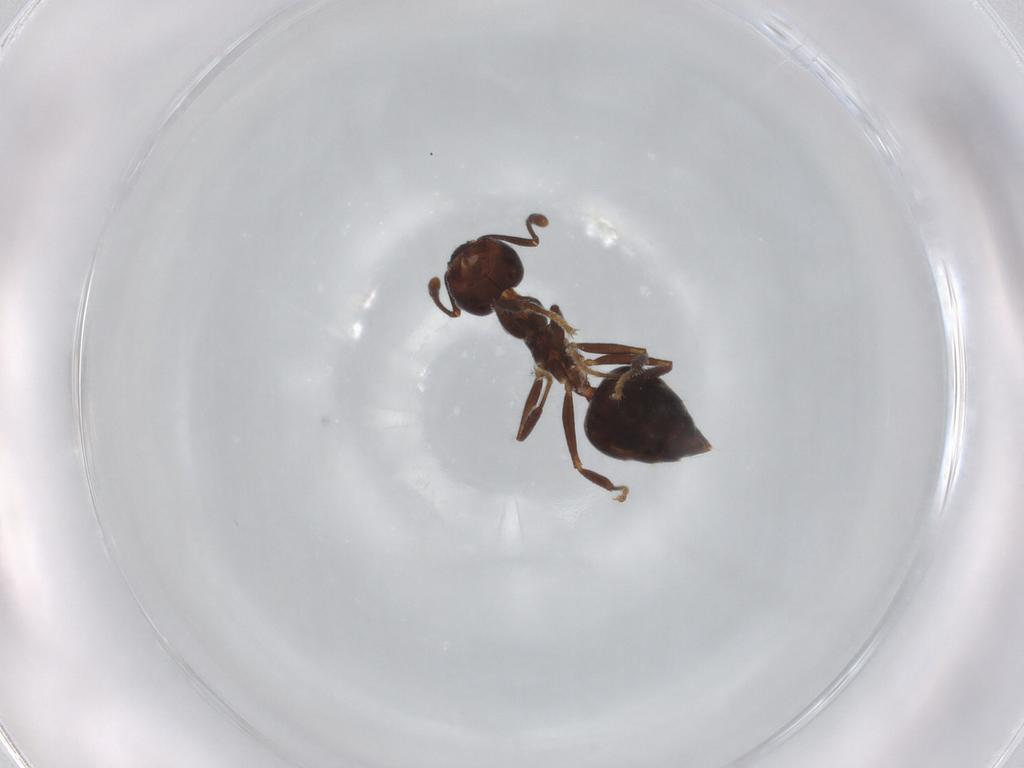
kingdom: Animalia
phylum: Arthropoda
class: Insecta
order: Hymenoptera
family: Formicidae
